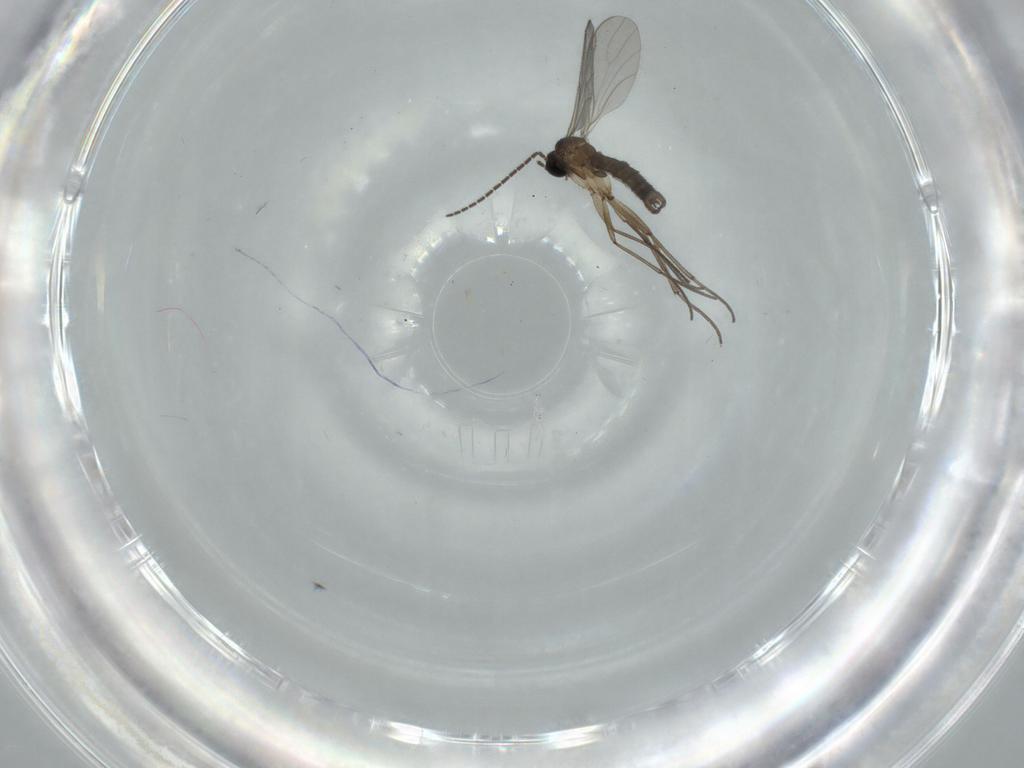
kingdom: Animalia
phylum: Arthropoda
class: Insecta
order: Diptera
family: Sciaridae
